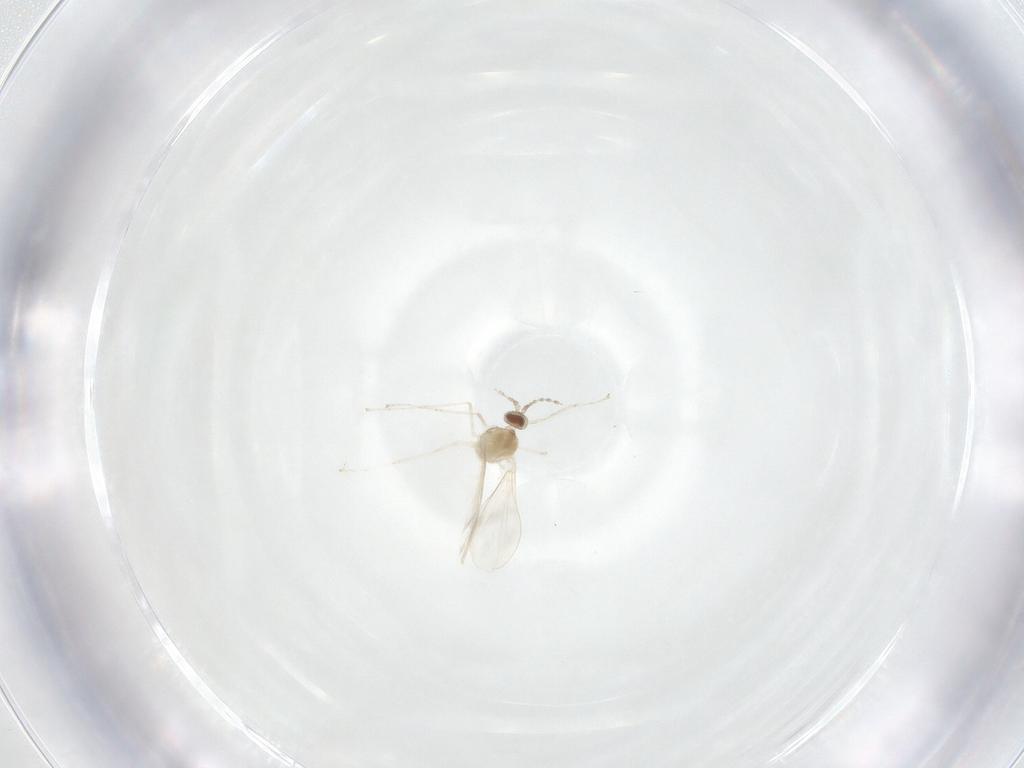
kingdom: Animalia
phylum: Arthropoda
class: Insecta
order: Diptera
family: Cecidomyiidae
